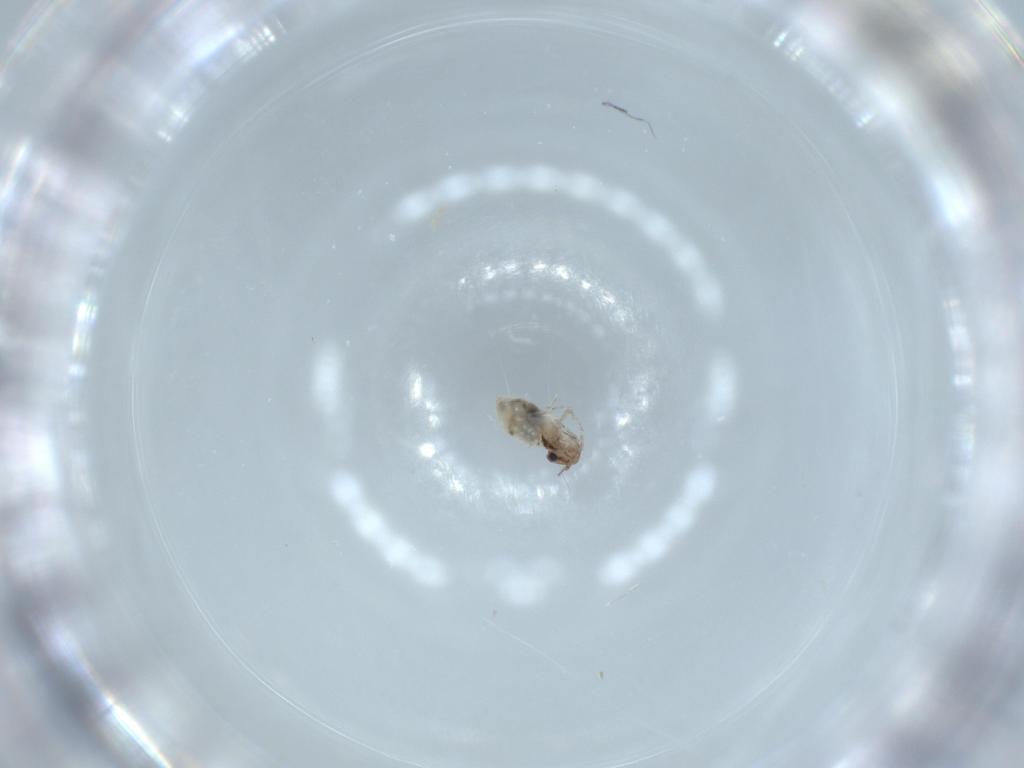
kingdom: Animalia
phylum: Arthropoda
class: Insecta
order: Psocodea
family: Lepidopsocidae
